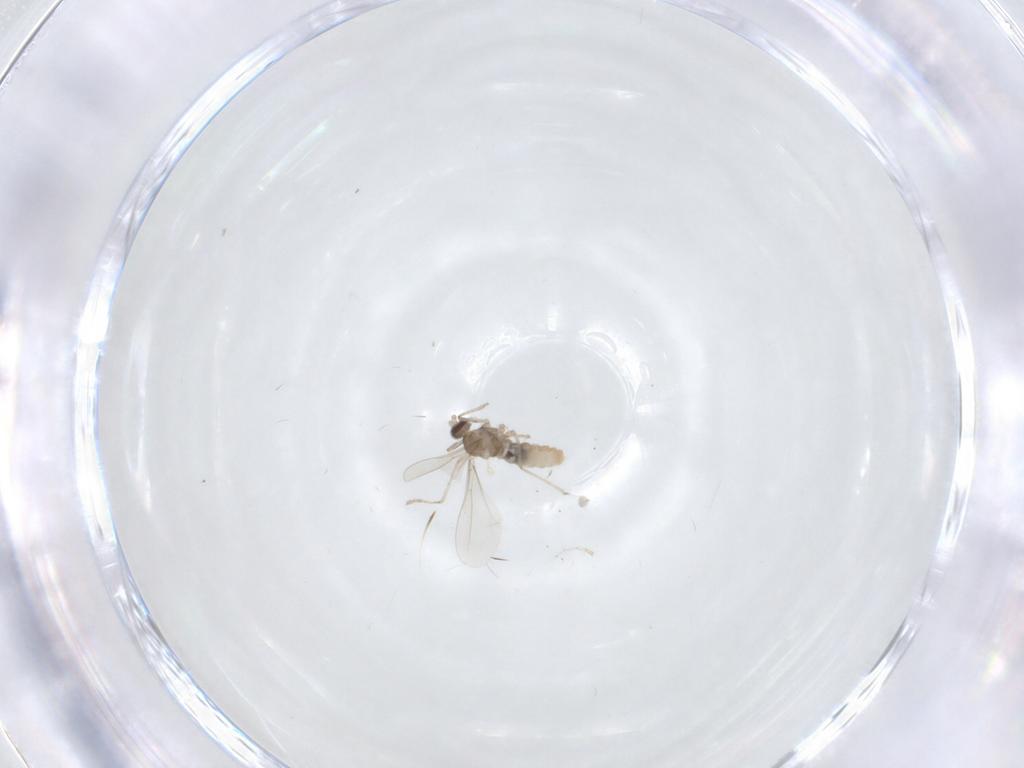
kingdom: Animalia
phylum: Arthropoda
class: Insecta
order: Diptera
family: Cecidomyiidae
